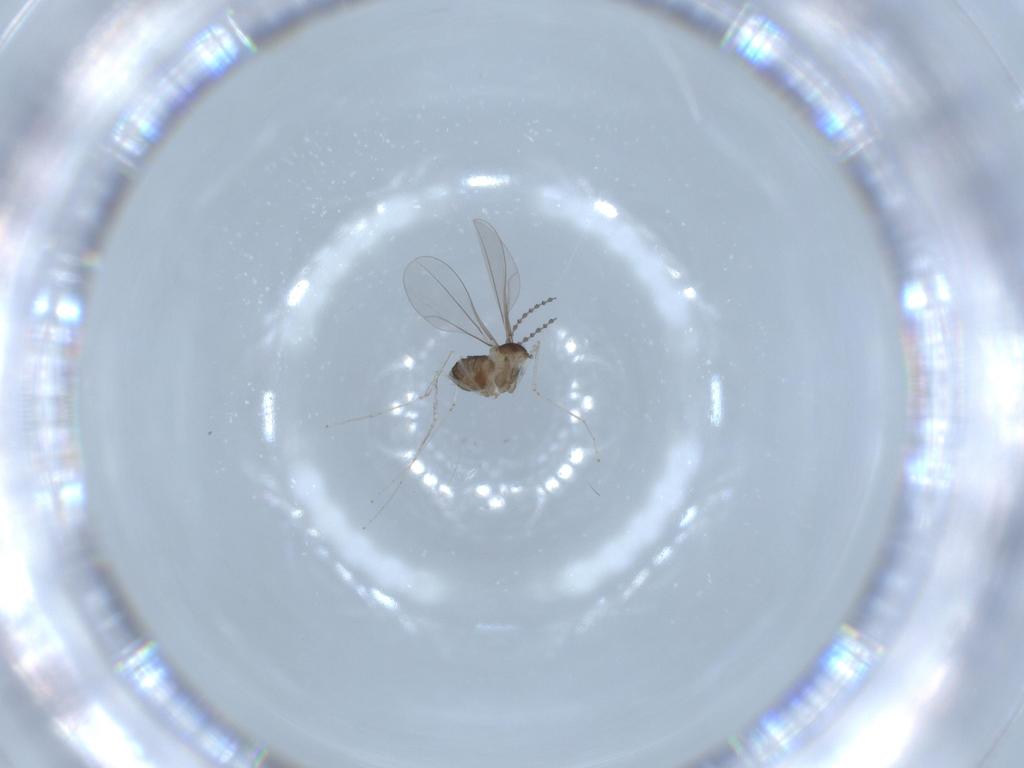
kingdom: Animalia
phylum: Arthropoda
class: Insecta
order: Diptera
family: Cecidomyiidae
